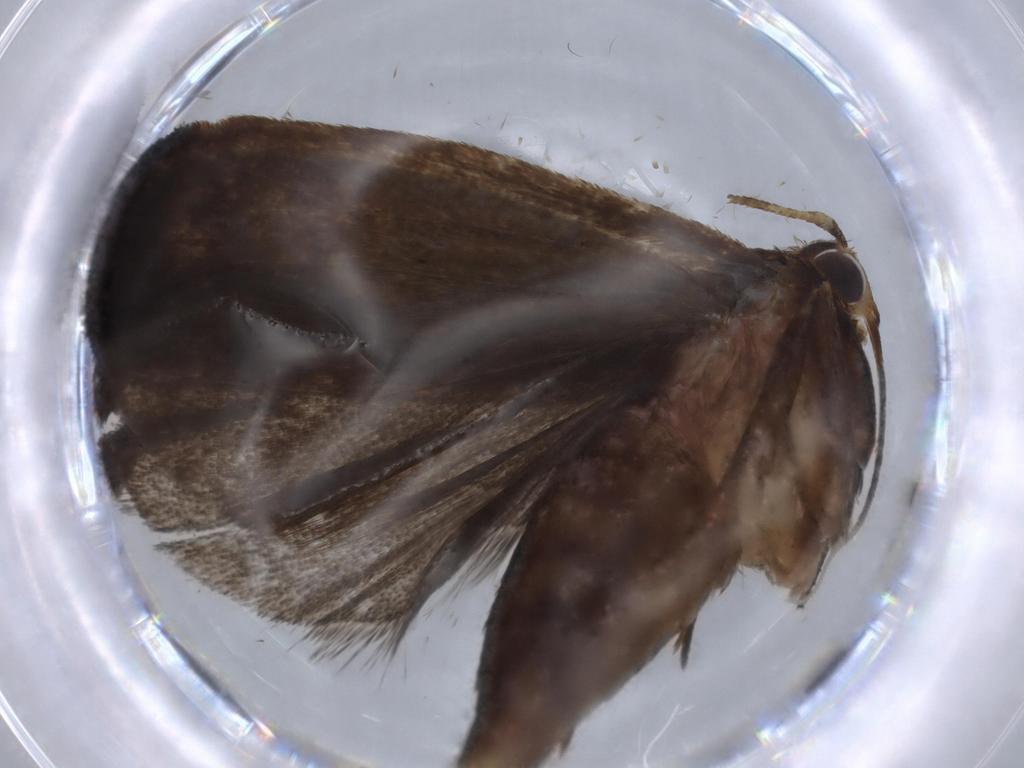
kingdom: Animalia
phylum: Arthropoda
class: Insecta
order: Lepidoptera
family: Autostichidae
